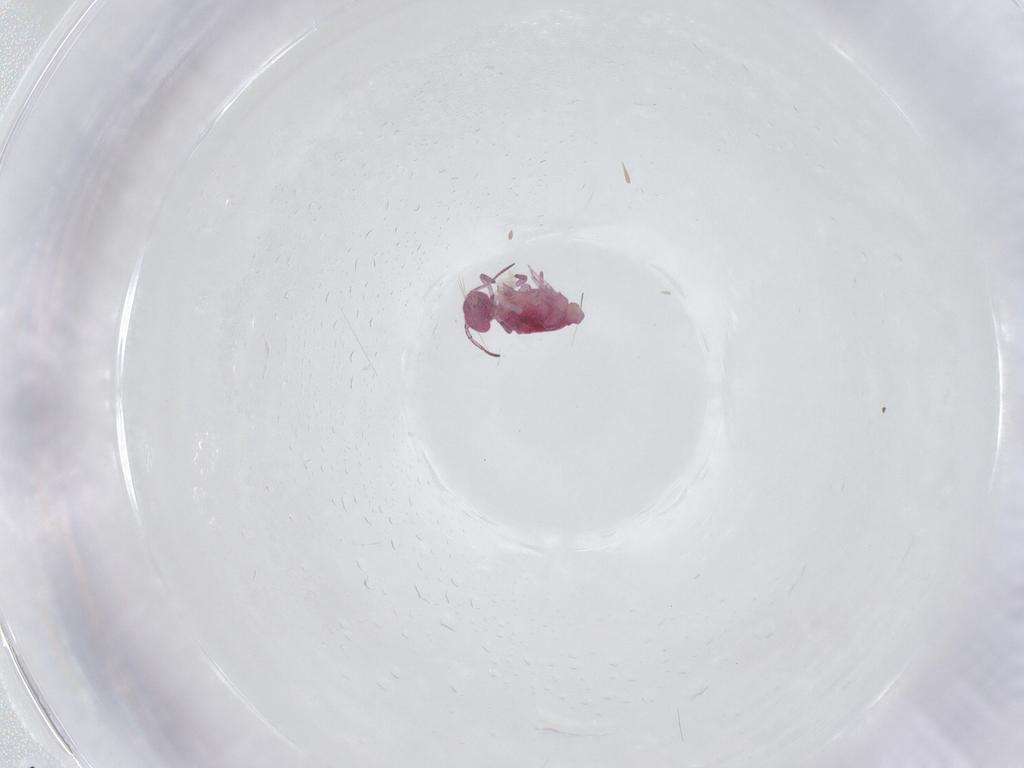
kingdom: Animalia
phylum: Arthropoda
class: Collembola
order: Symphypleona
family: Sminthuridae
